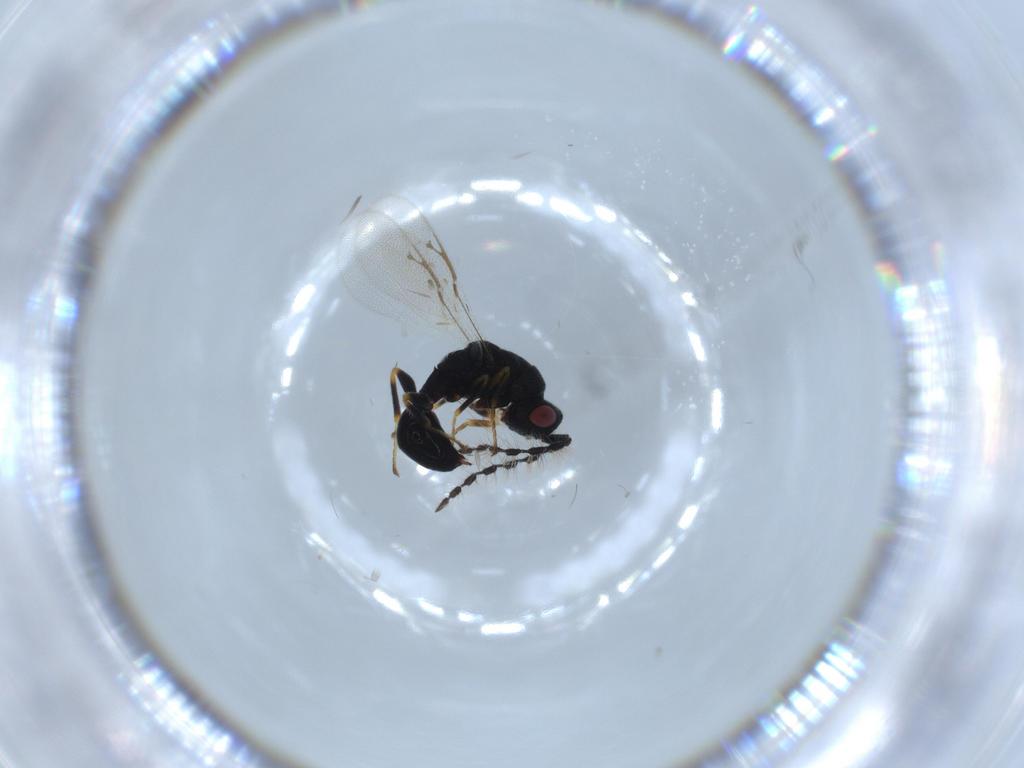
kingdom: Animalia
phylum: Arthropoda
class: Insecta
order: Hymenoptera
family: Eurytomidae
